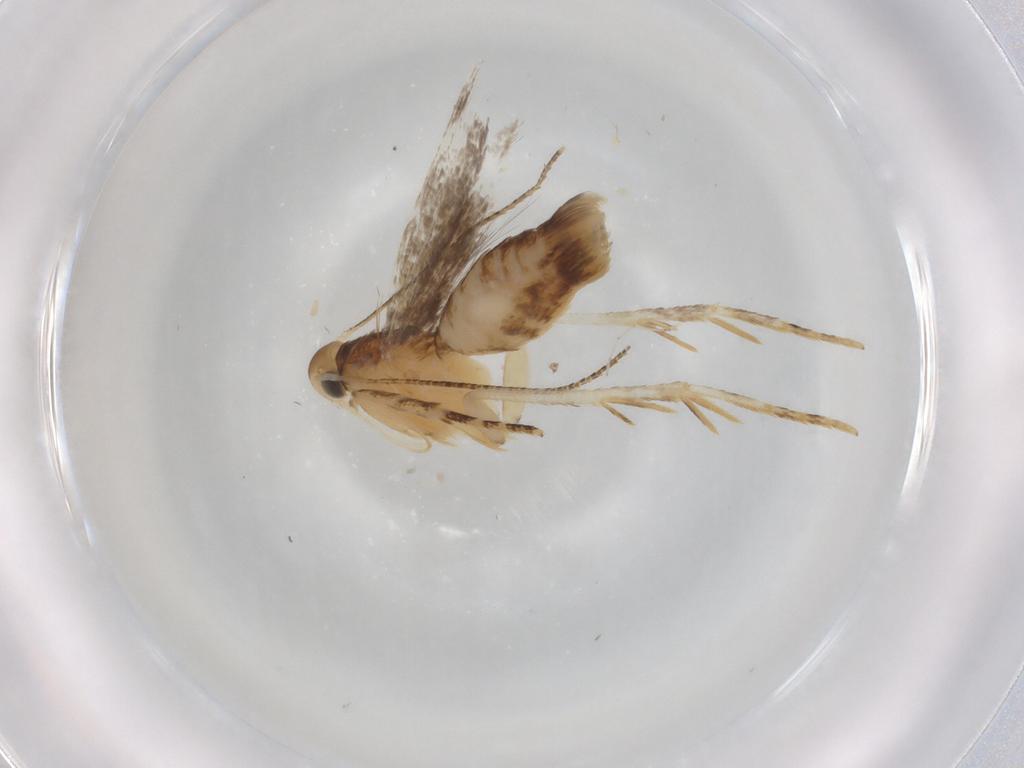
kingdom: Animalia
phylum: Arthropoda
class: Insecta
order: Lepidoptera
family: Erebidae
